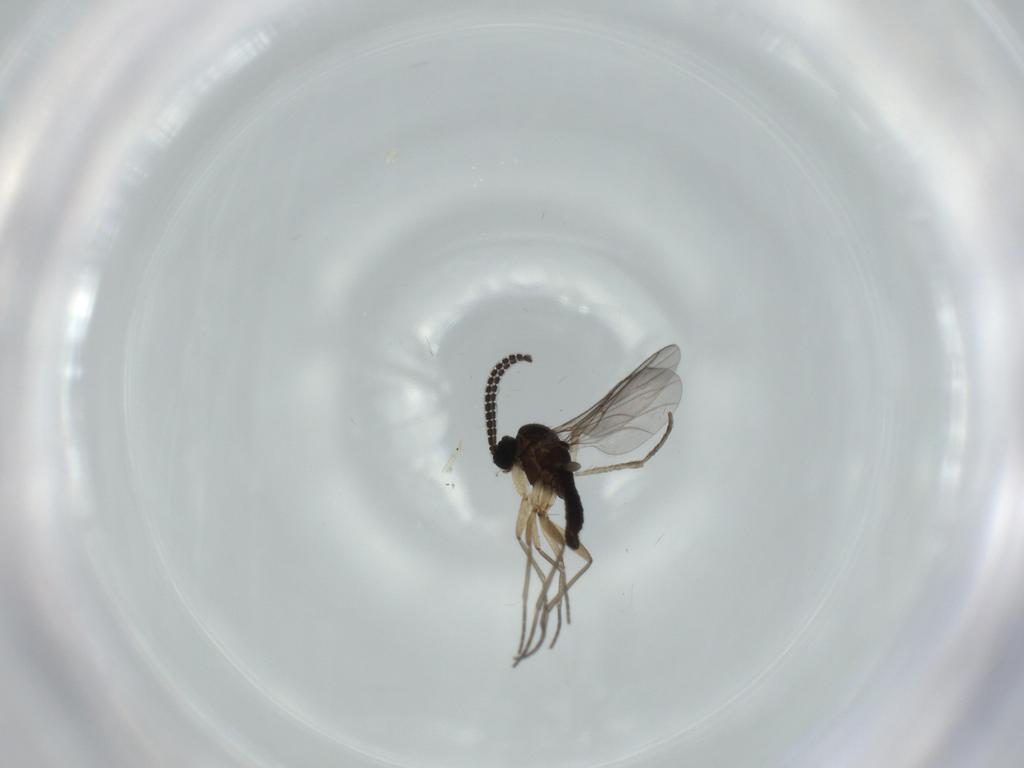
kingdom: Animalia
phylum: Arthropoda
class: Insecta
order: Diptera
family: Sciaridae
